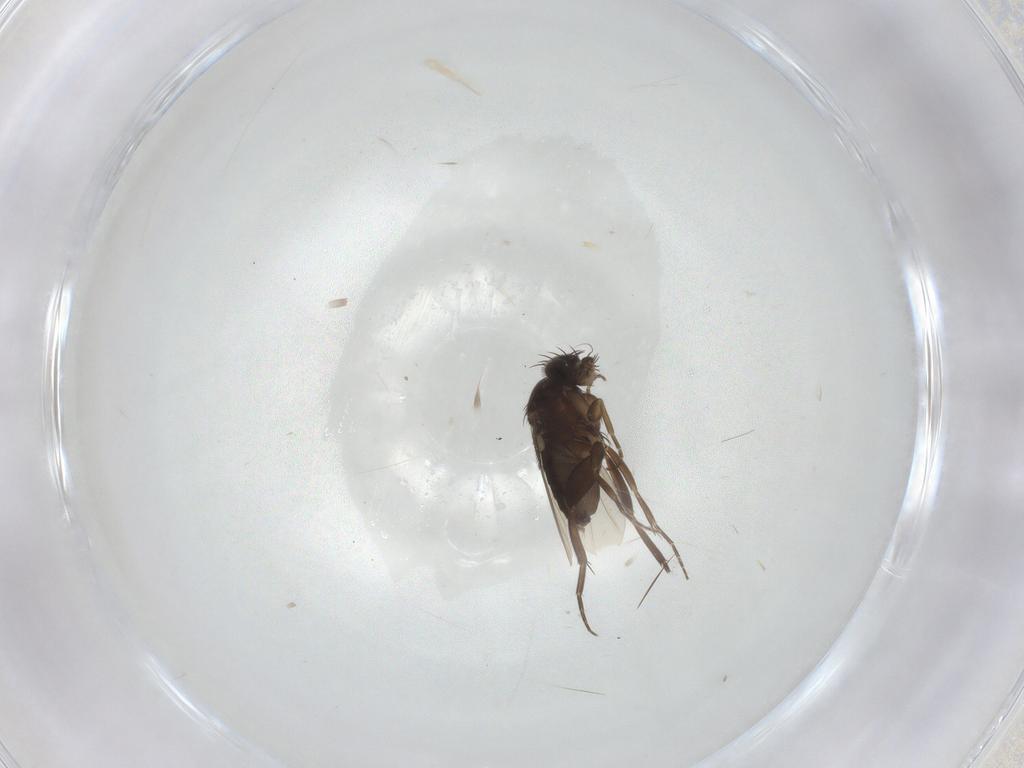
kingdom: Animalia
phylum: Arthropoda
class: Insecta
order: Diptera
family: Phoridae
